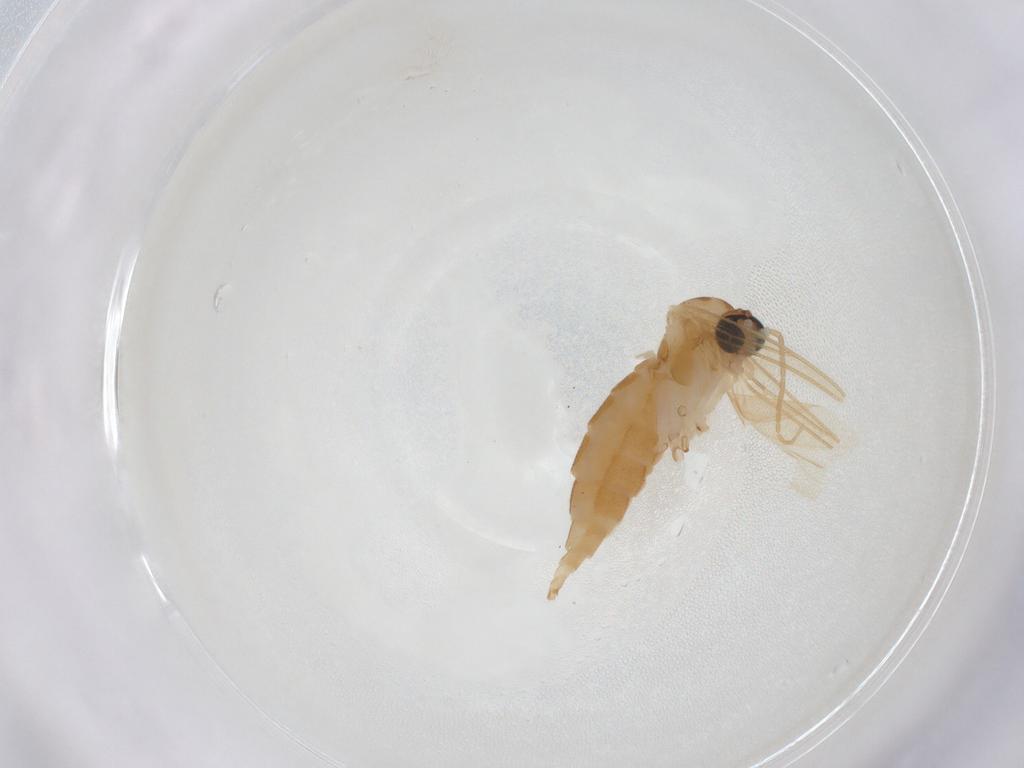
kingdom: Animalia
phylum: Arthropoda
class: Insecta
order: Diptera
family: Sciaridae
